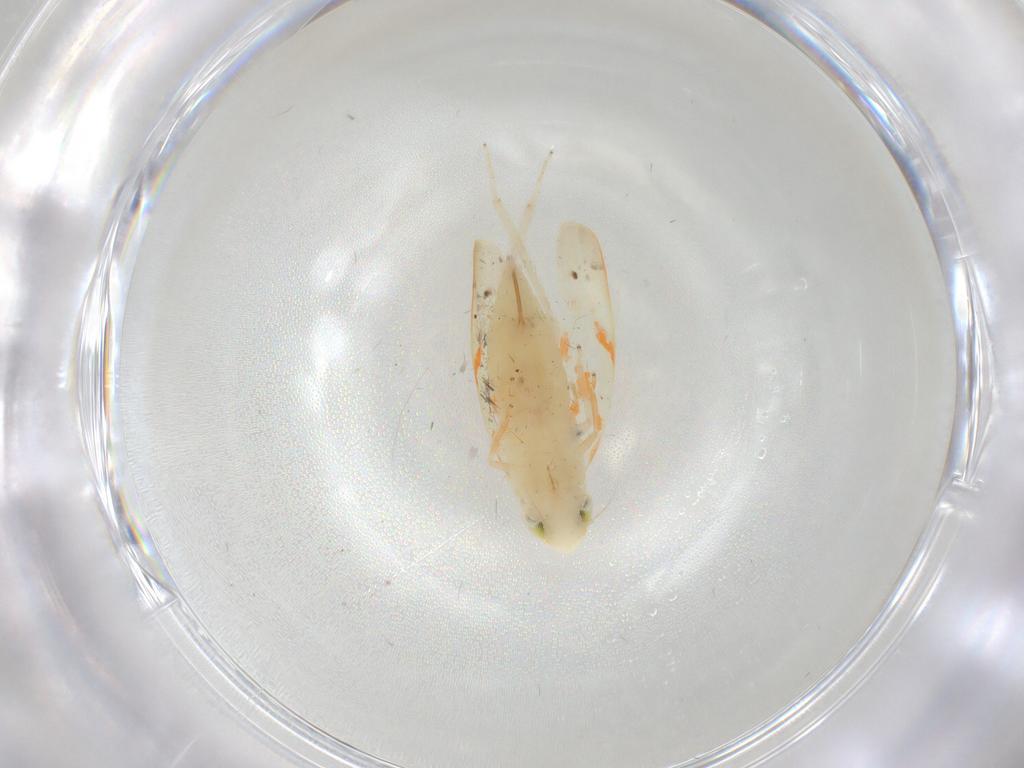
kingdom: Animalia
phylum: Arthropoda
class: Insecta
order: Hemiptera
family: Cicadellidae
